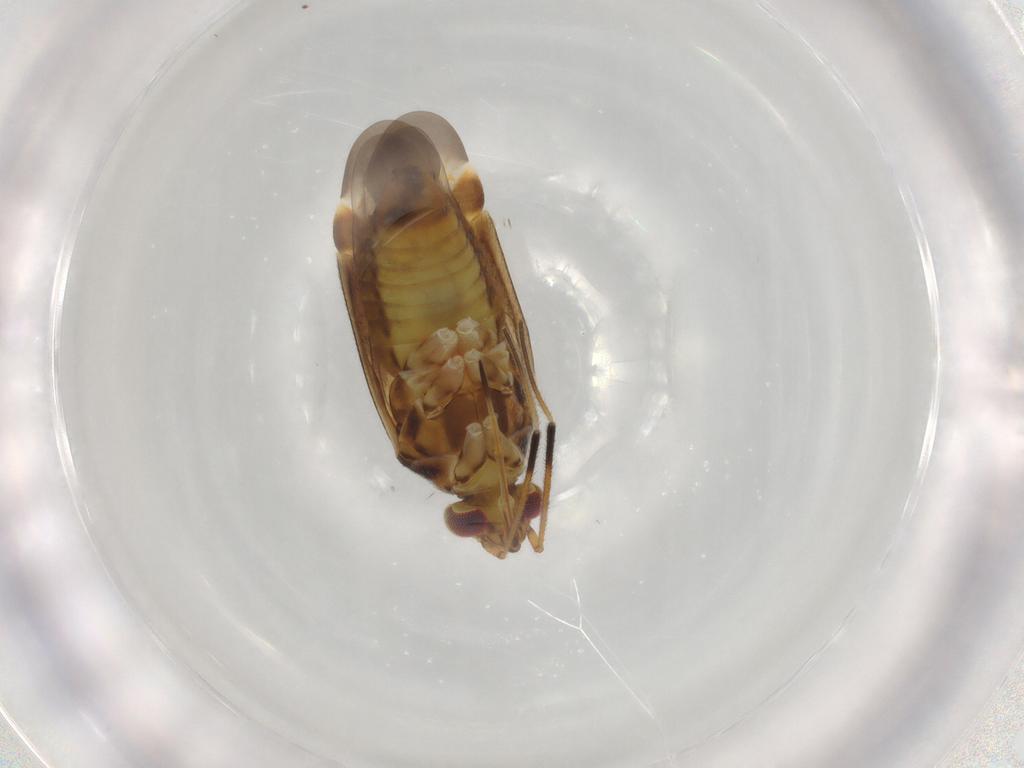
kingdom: Animalia
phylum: Arthropoda
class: Insecta
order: Hemiptera
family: Miridae
